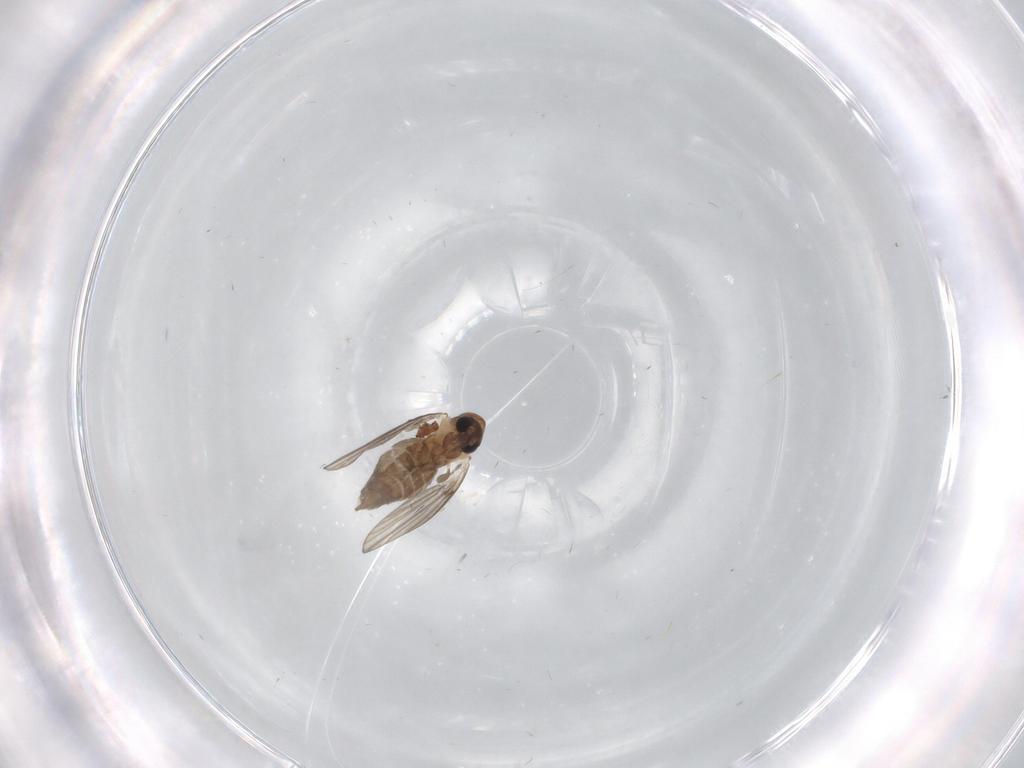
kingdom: Animalia
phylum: Arthropoda
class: Insecta
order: Diptera
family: Psychodidae
